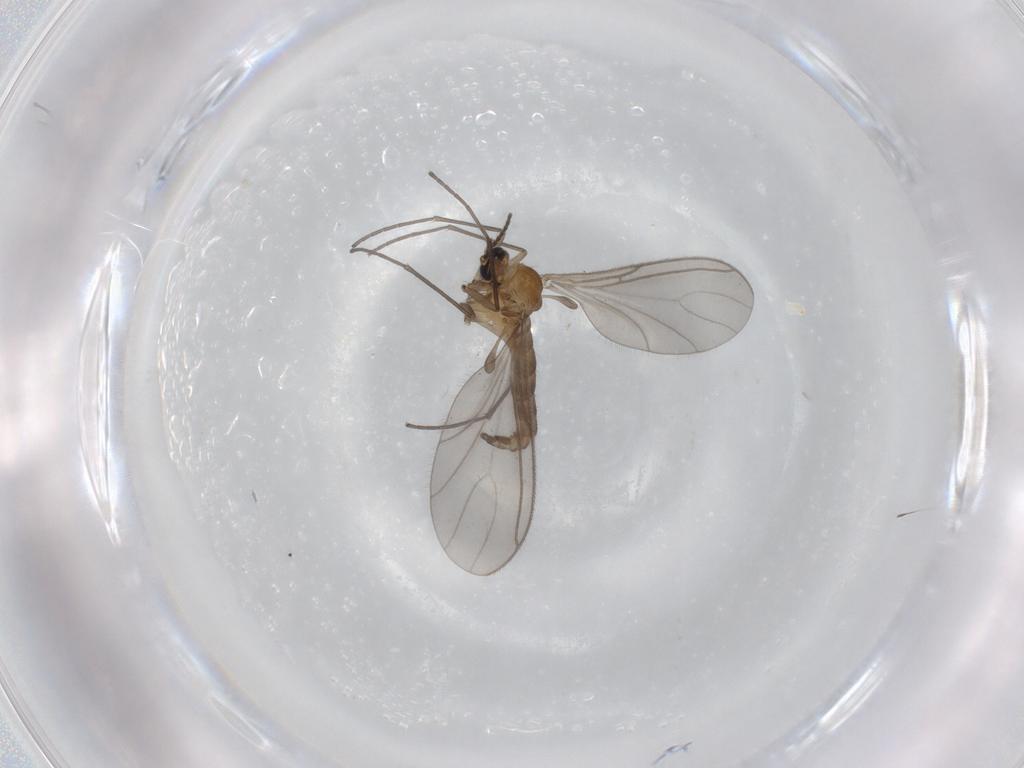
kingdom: Animalia
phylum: Arthropoda
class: Insecta
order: Diptera
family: Sciaridae
